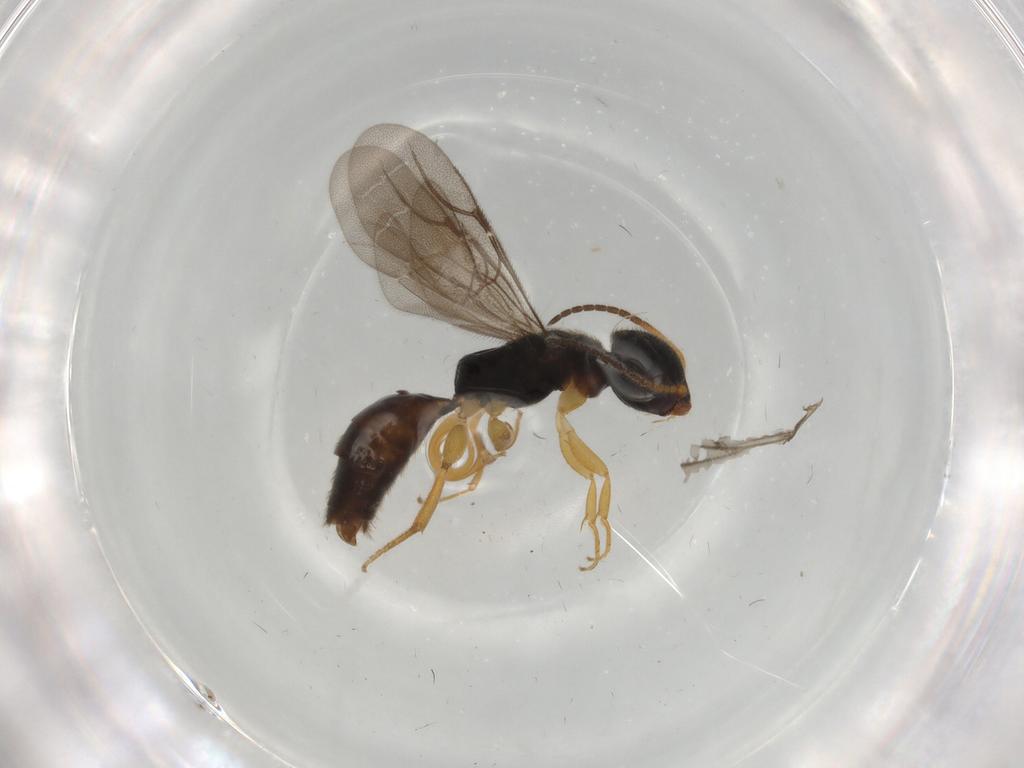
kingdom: Animalia
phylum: Arthropoda
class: Insecta
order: Hymenoptera
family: Bethylidae
